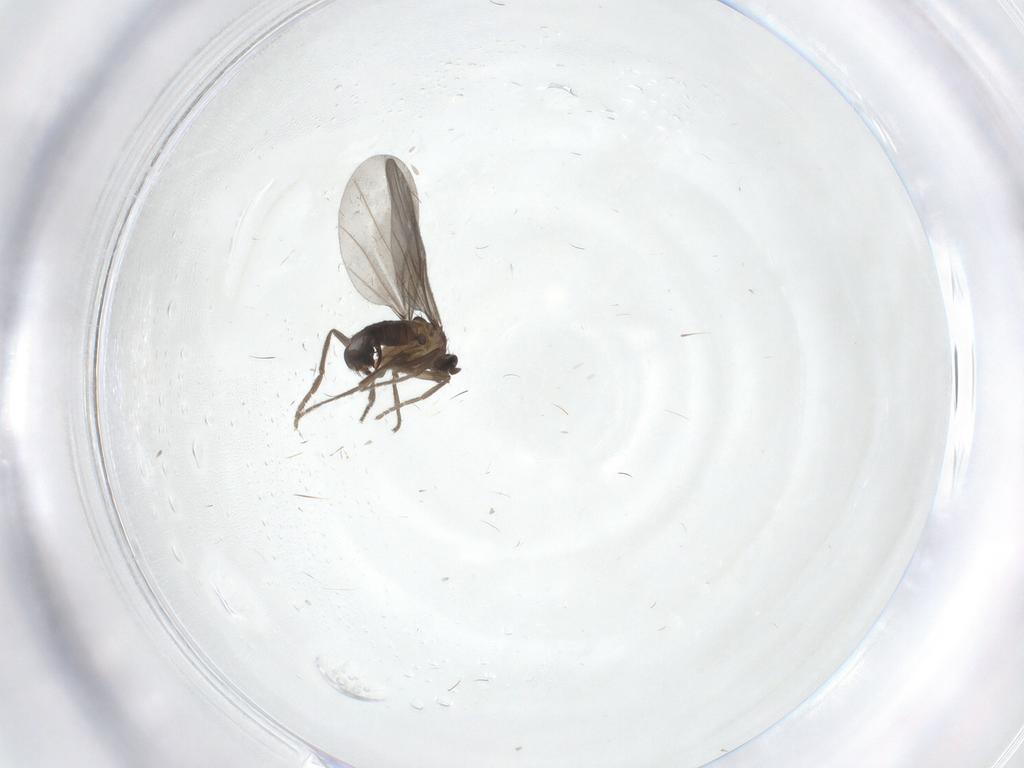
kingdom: Animalia
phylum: Arthropoda
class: Insecta
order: Diptera
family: Phoridae
